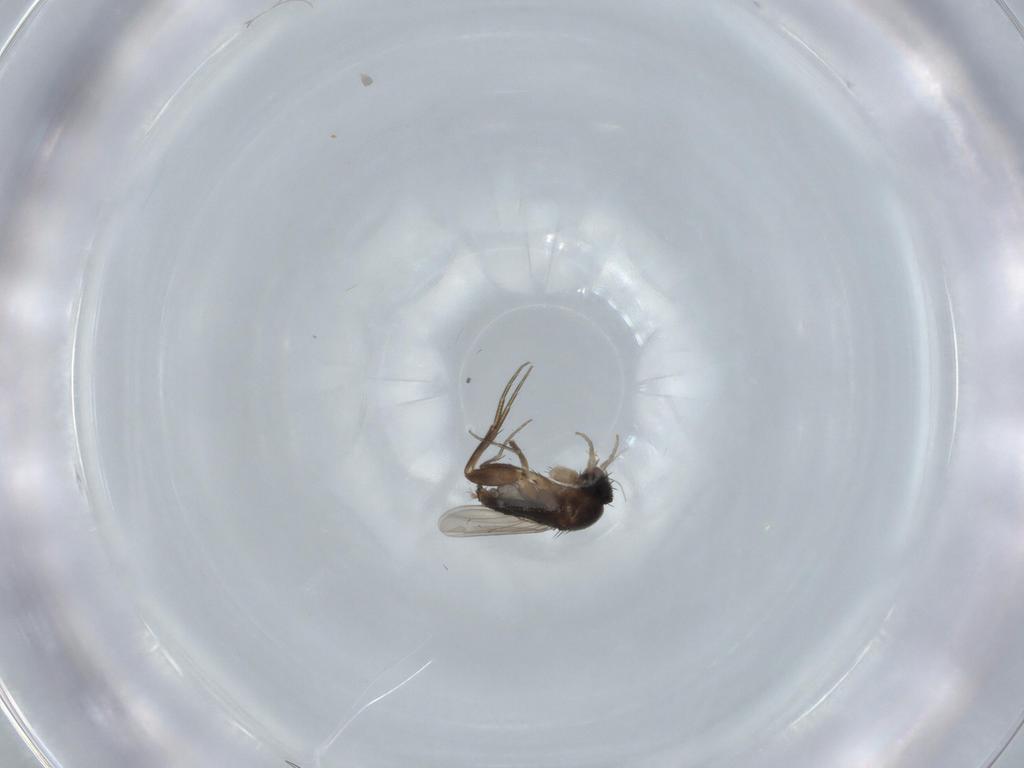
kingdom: Animalia
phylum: Arthropoda
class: Insecta
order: Diptera
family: Phoridae
